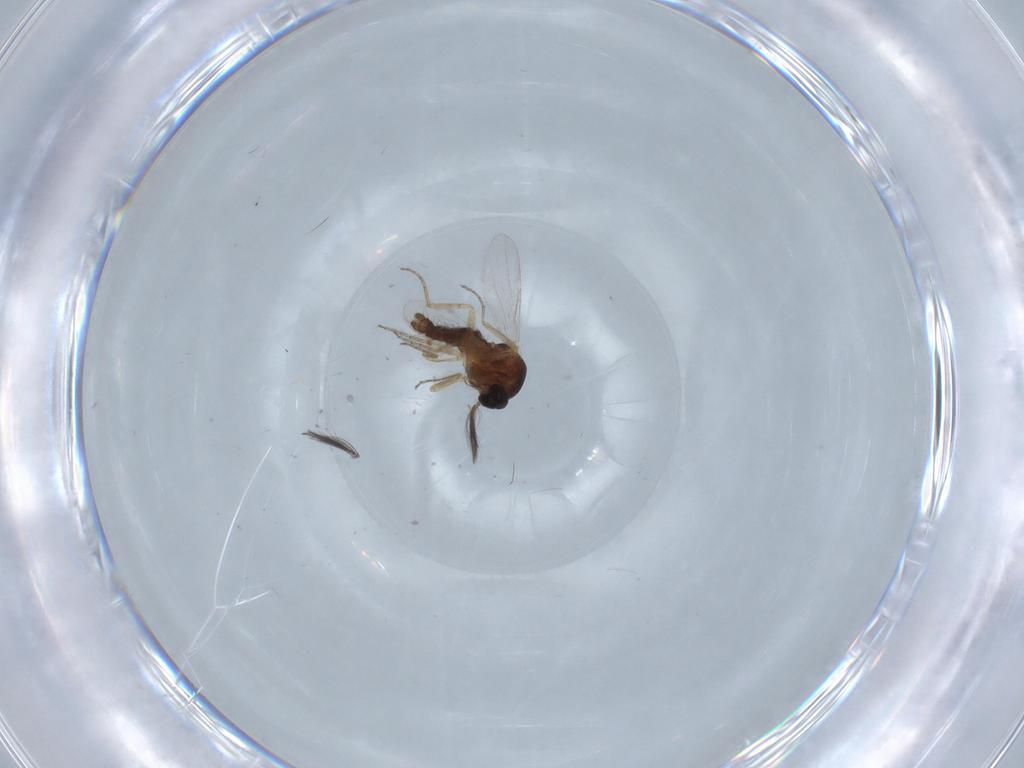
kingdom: Animalia
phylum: Arthropoda
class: Insecta
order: Diptera
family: Ceratopogonidae
